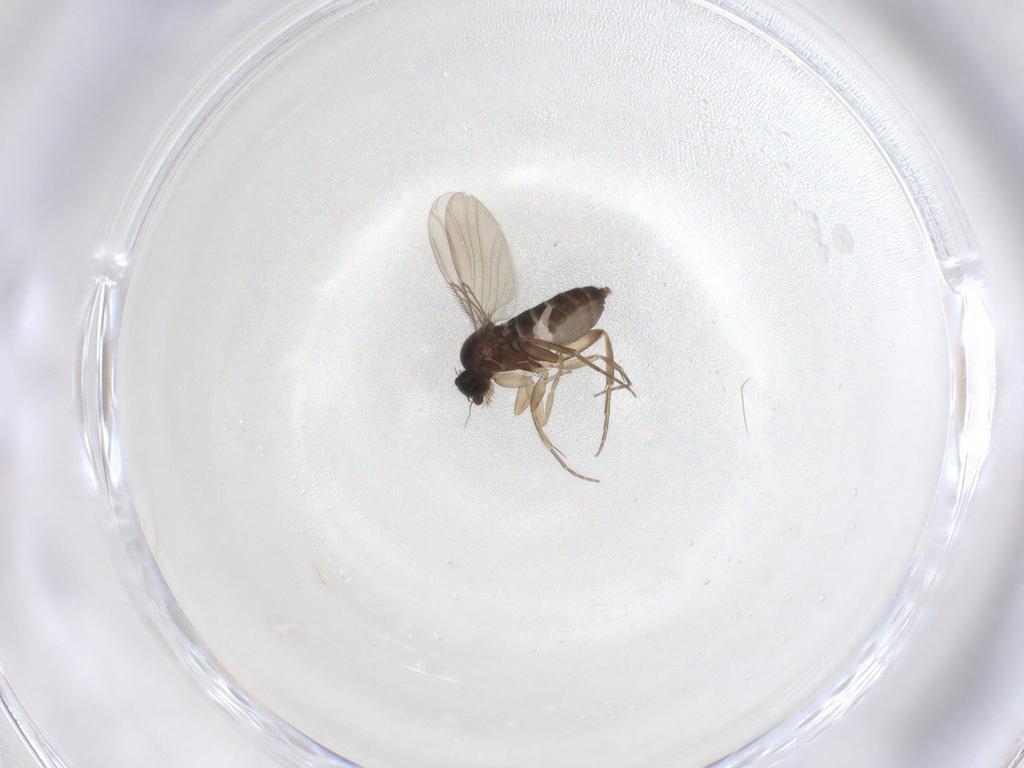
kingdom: Animalia
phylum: Arthropoda
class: Insecta
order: Diptera
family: Phoridae
